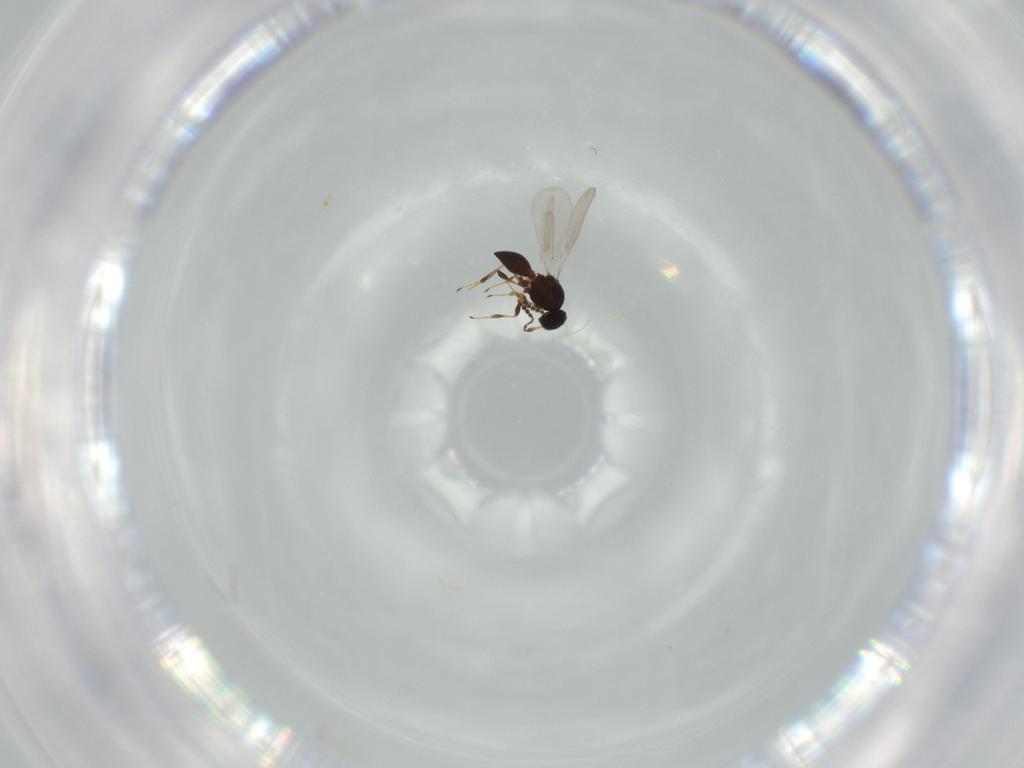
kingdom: Animalia
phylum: Arthropoda
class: Insecta
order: Hymenoptera
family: Platygastridae
